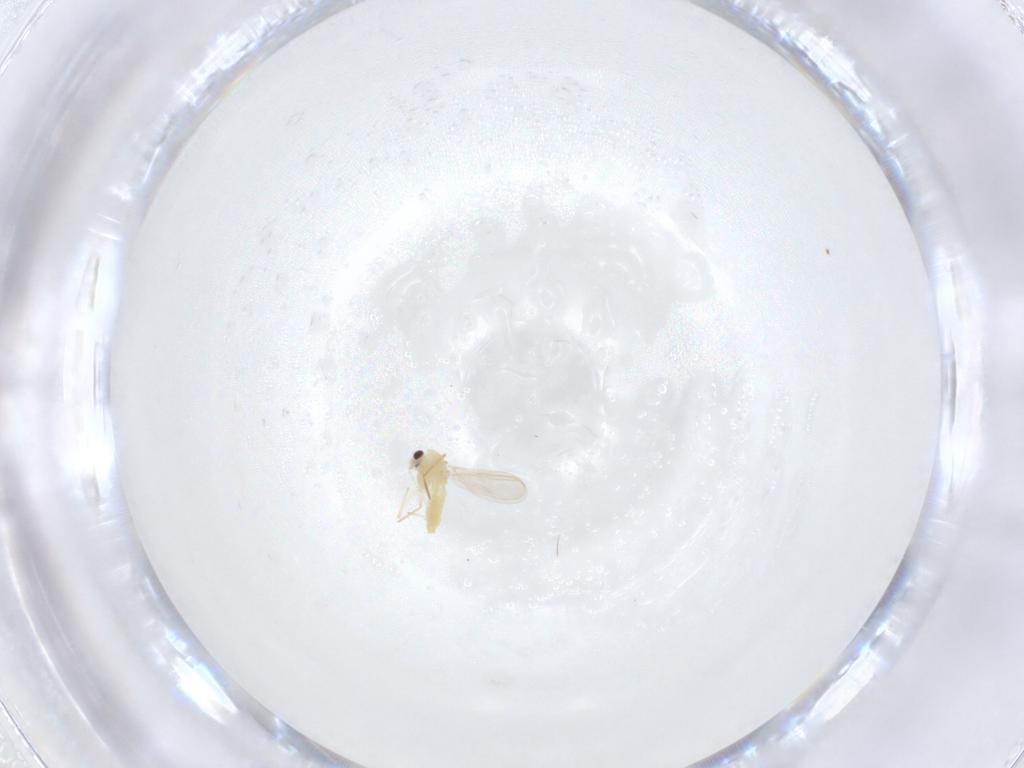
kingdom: Animalia
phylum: Arthropoda
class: Insecta
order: Diptera
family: Chironomidae
